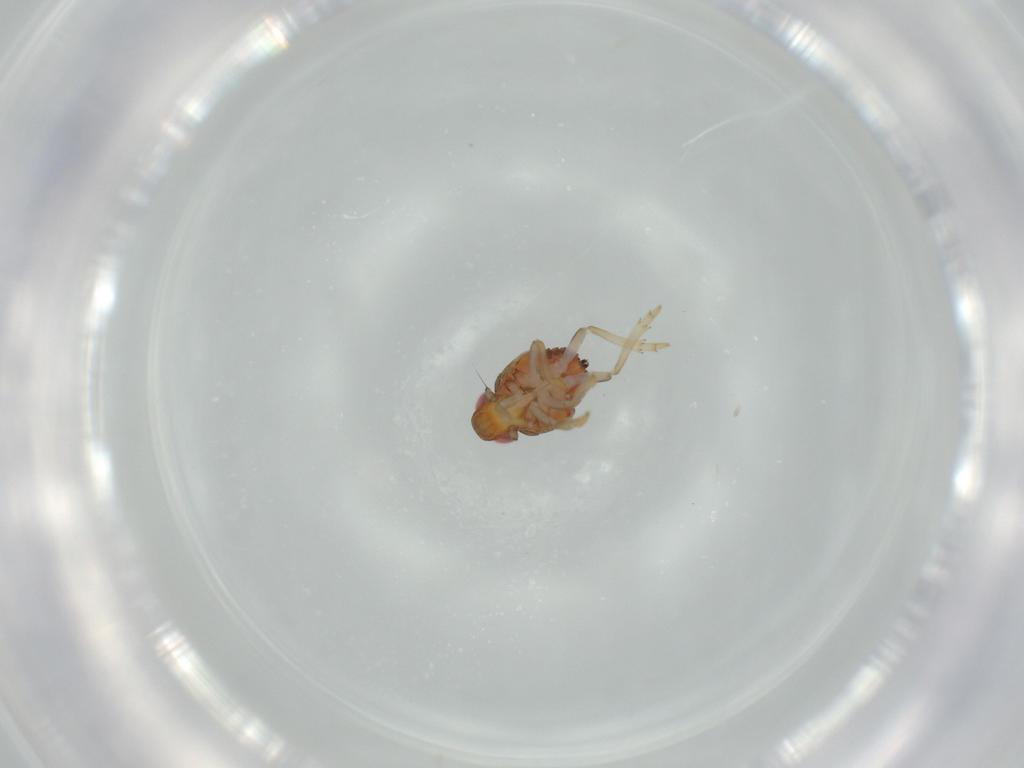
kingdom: Animalia
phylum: Arthropoda
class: Insecta
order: Hemiptera
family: Issidae
